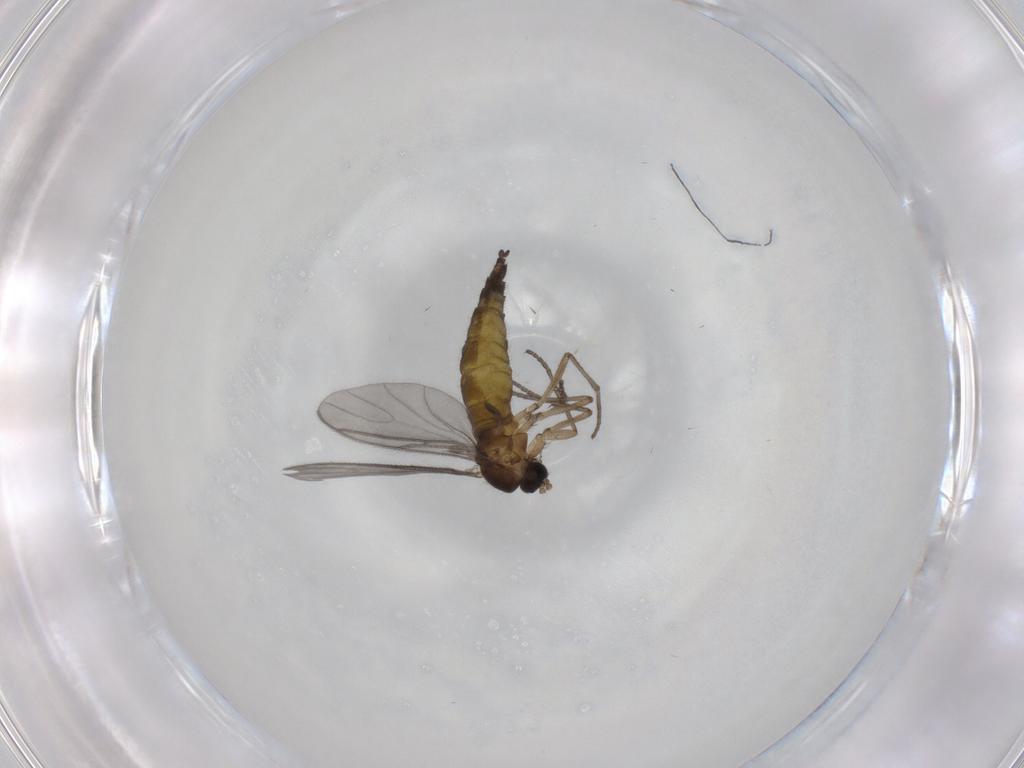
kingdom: Animalia
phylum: Arthropoda
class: Insecta
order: Diptera
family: Sciaridae
